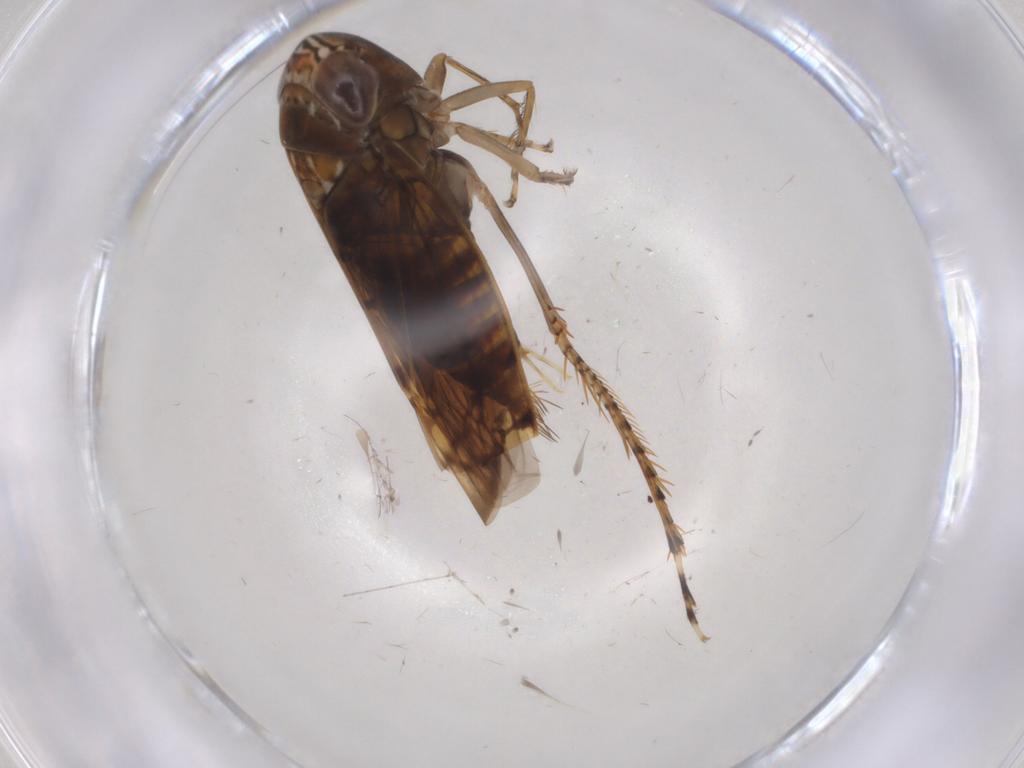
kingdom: Animalia
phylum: Arthropoda
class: Insecta
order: Hemiptera
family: Cicadellidae
